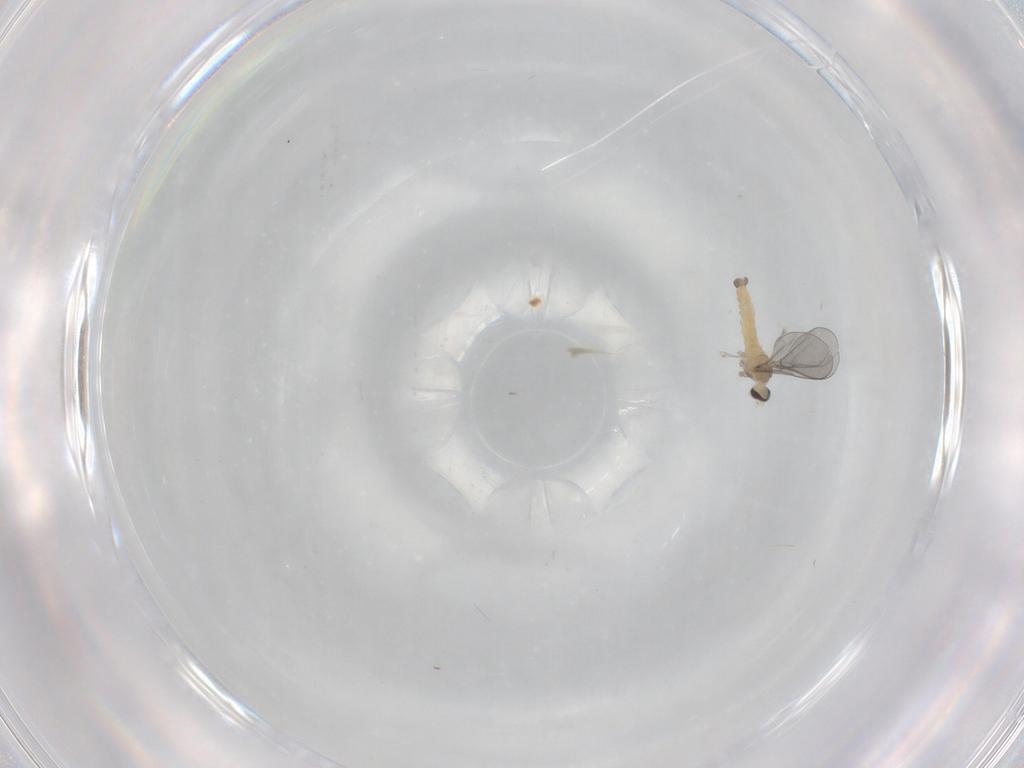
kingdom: Animalia
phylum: Arthropoda
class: Insecta
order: Diptera
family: Cecidomyiidae
